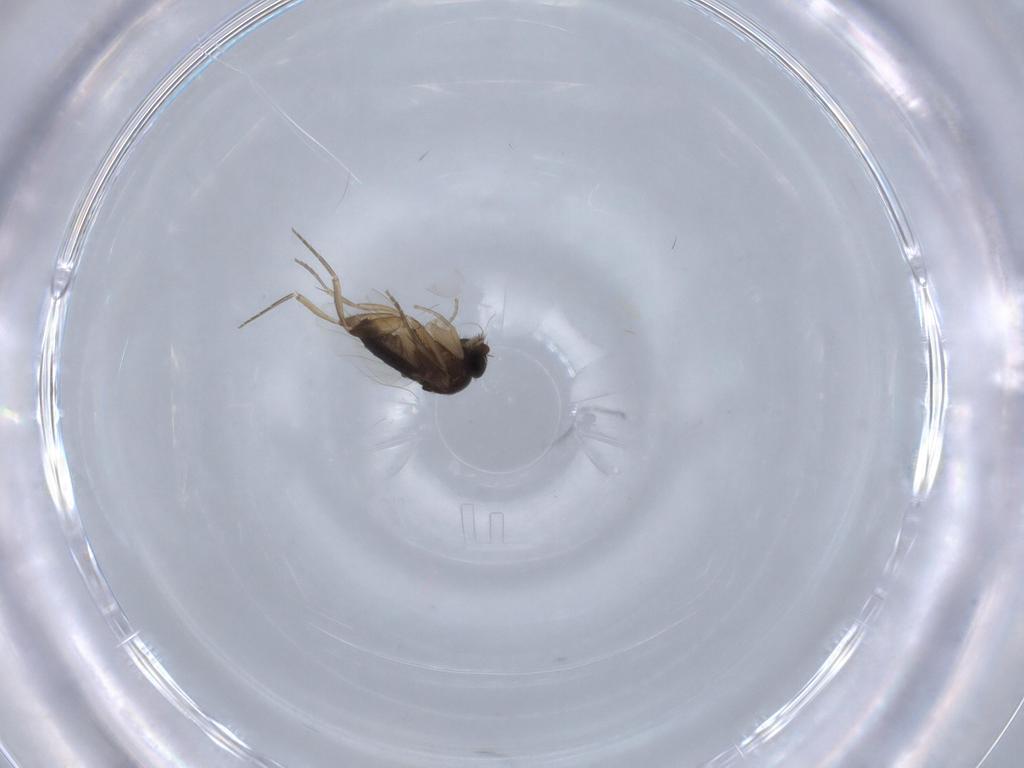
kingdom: Animalia
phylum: Arthropoda
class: Insecta
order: Diptera
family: Phoridae
